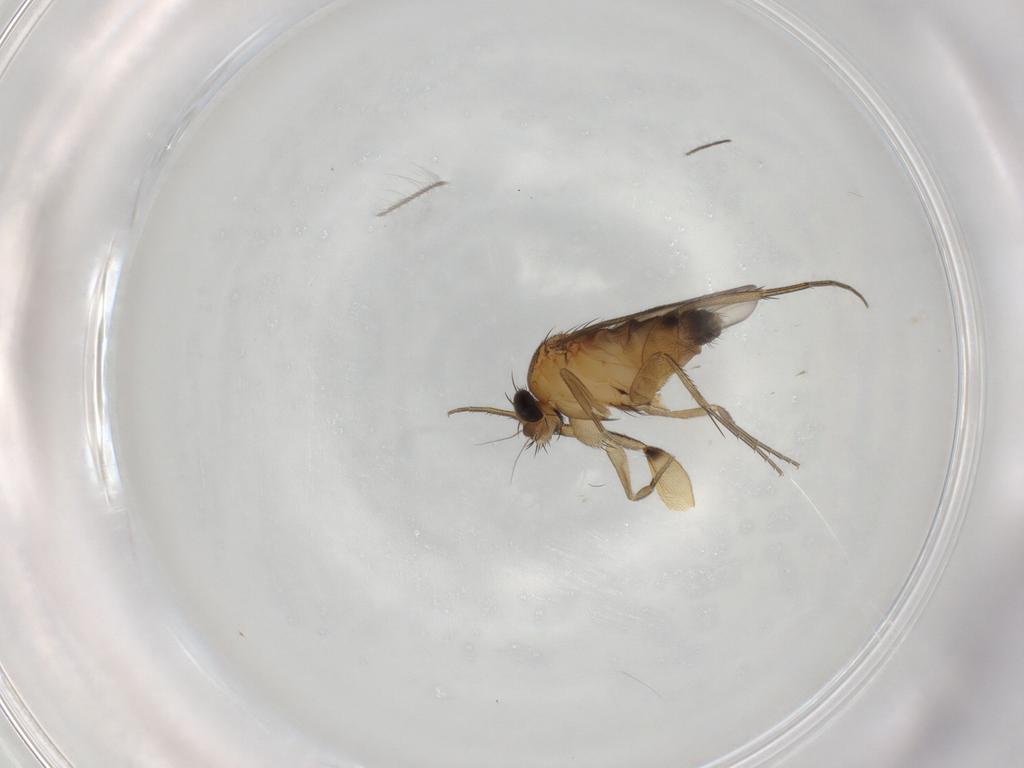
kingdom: Animalia
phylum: Arthropoda
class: Insecta
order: Diptera
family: Phoridae
